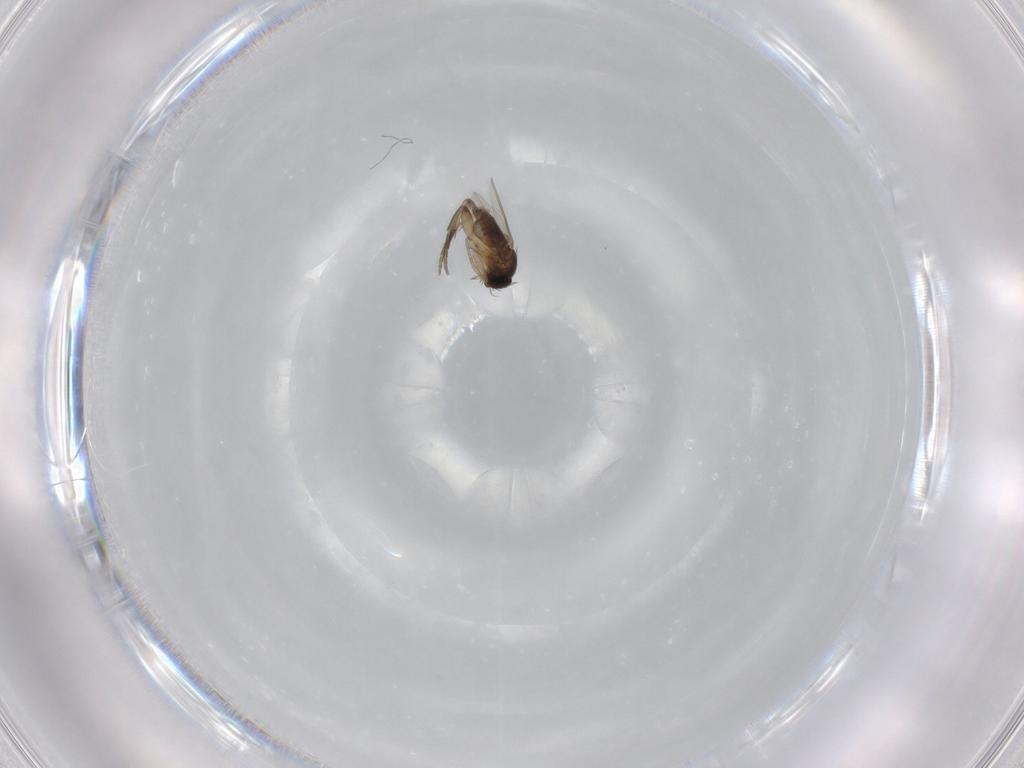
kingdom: Animalia
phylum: Arthropoda
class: Insecta
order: Diptera
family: Phoridae
